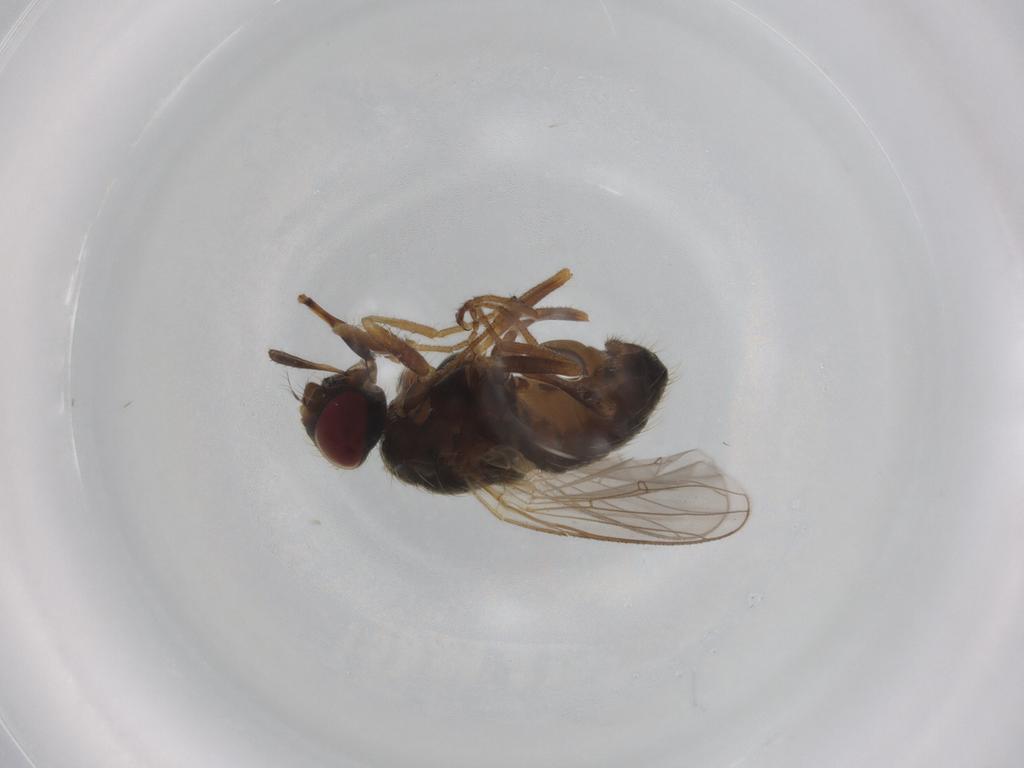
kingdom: Animalia
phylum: Arthropoda
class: Insecta
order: Diptera
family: Muscidae
